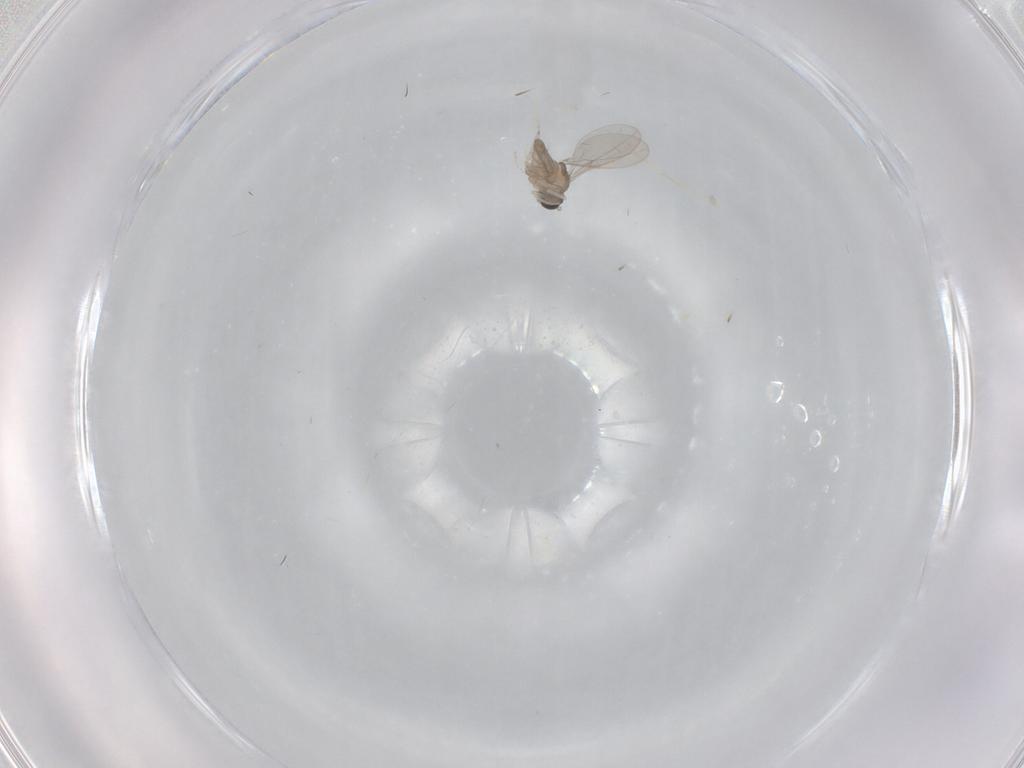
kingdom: Animalia
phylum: Arthropoda
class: Insecta
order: Diptera
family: Cecidomyiidae
